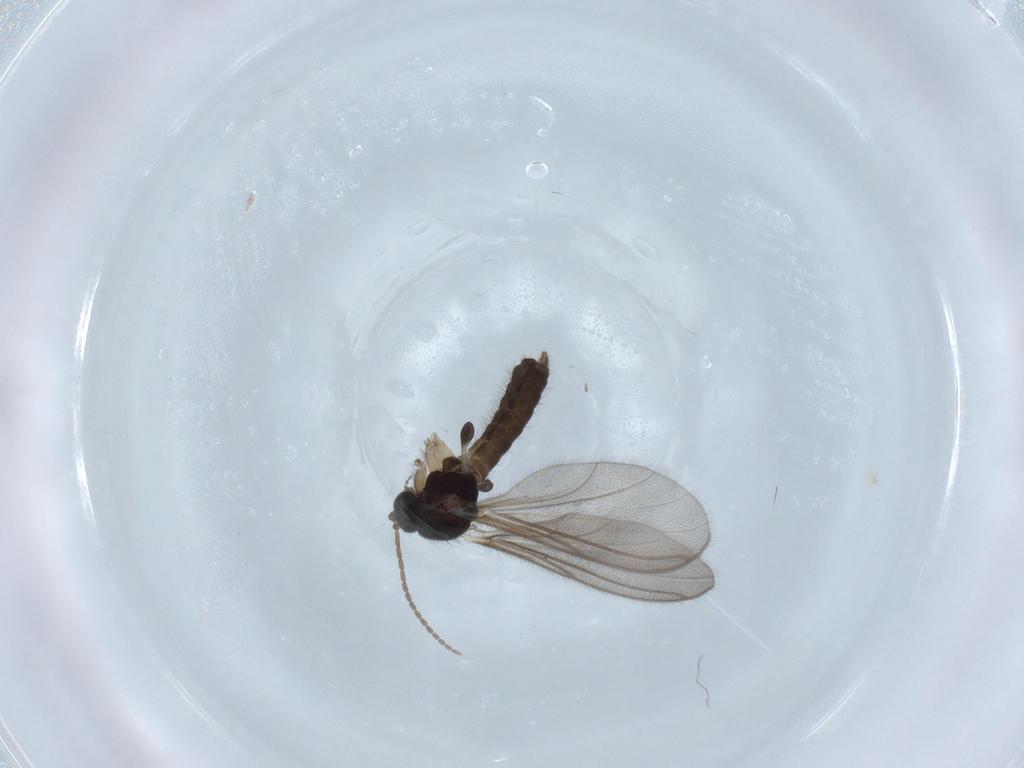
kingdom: Animalia
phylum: Arthropoda
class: Insecta
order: Diptera
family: Mycetophilidae
